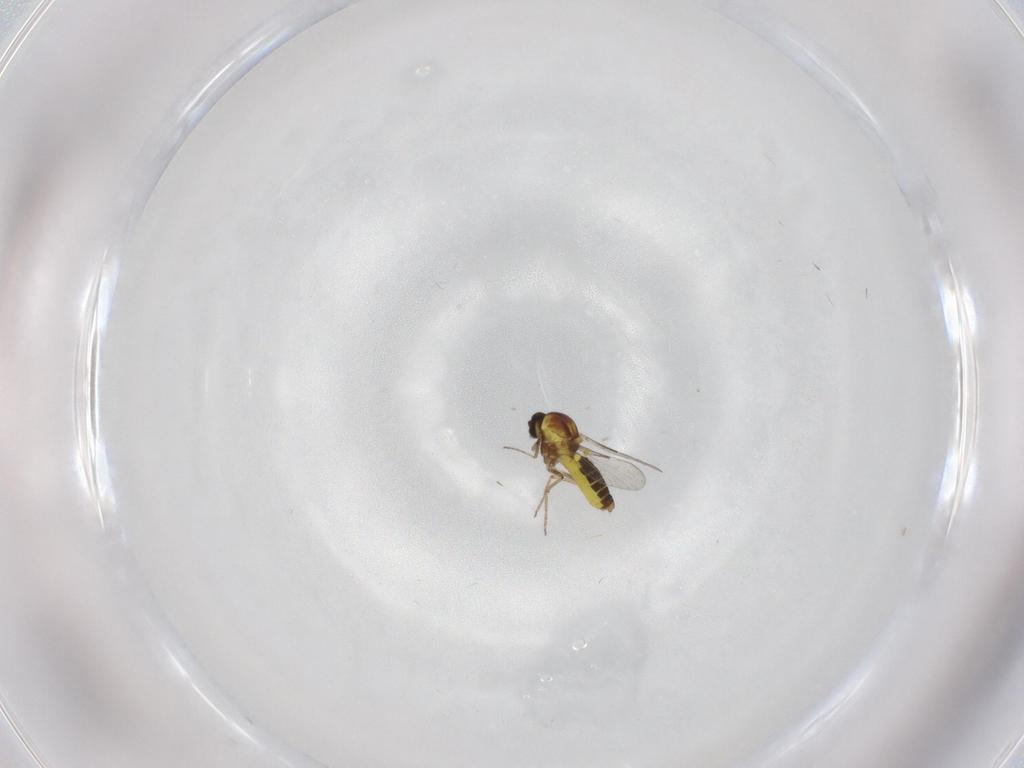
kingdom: Animalia
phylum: Arthropoda
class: Insecta
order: Diptera
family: Ceratopogonidae
